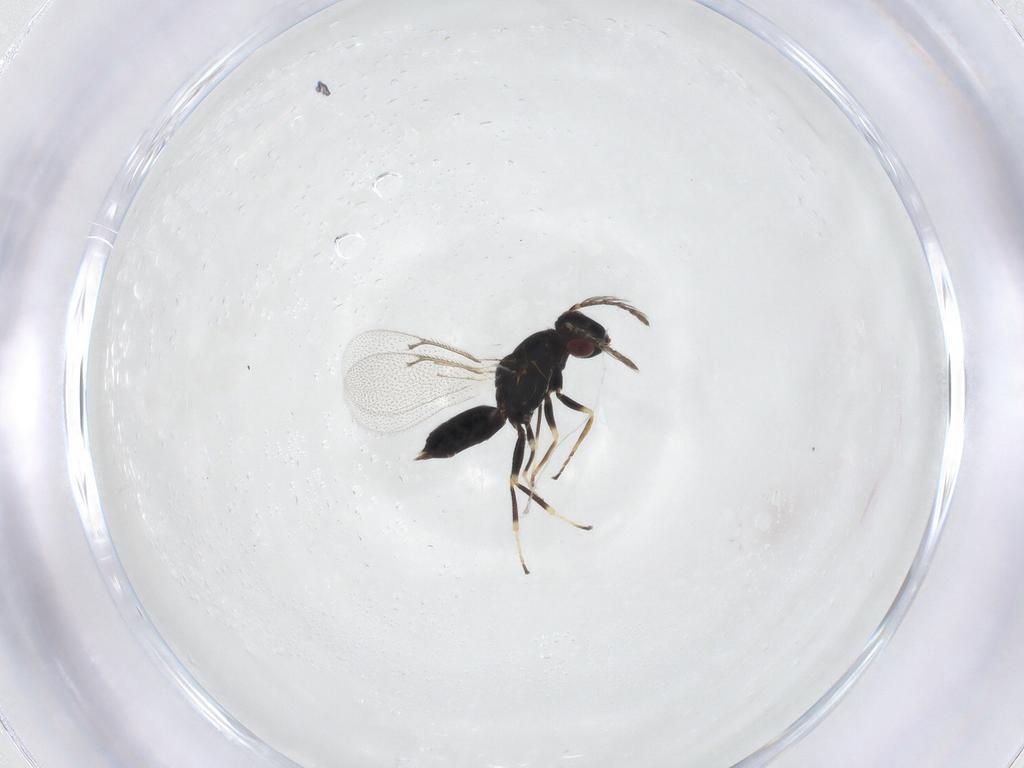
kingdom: Animalia
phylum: Arthropoda
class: Insecta
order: Hymenoptera
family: Eulophidae
